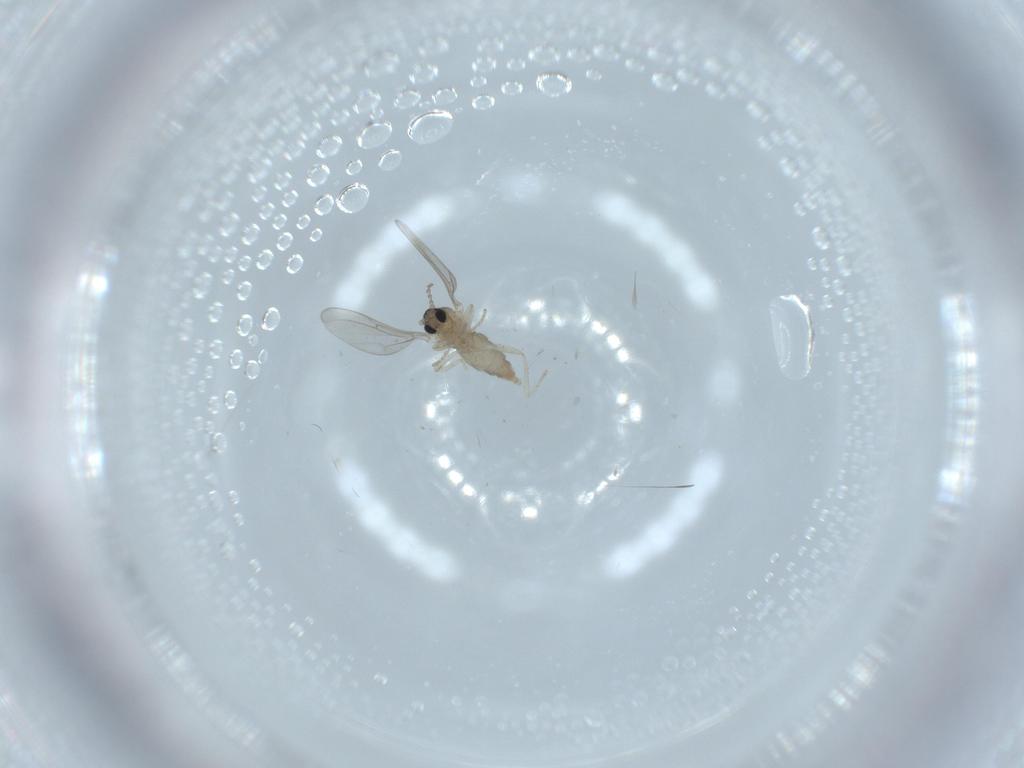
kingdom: Animalia
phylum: Arthropoda
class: Insecta
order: Diptera
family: Cecidomyiidae
